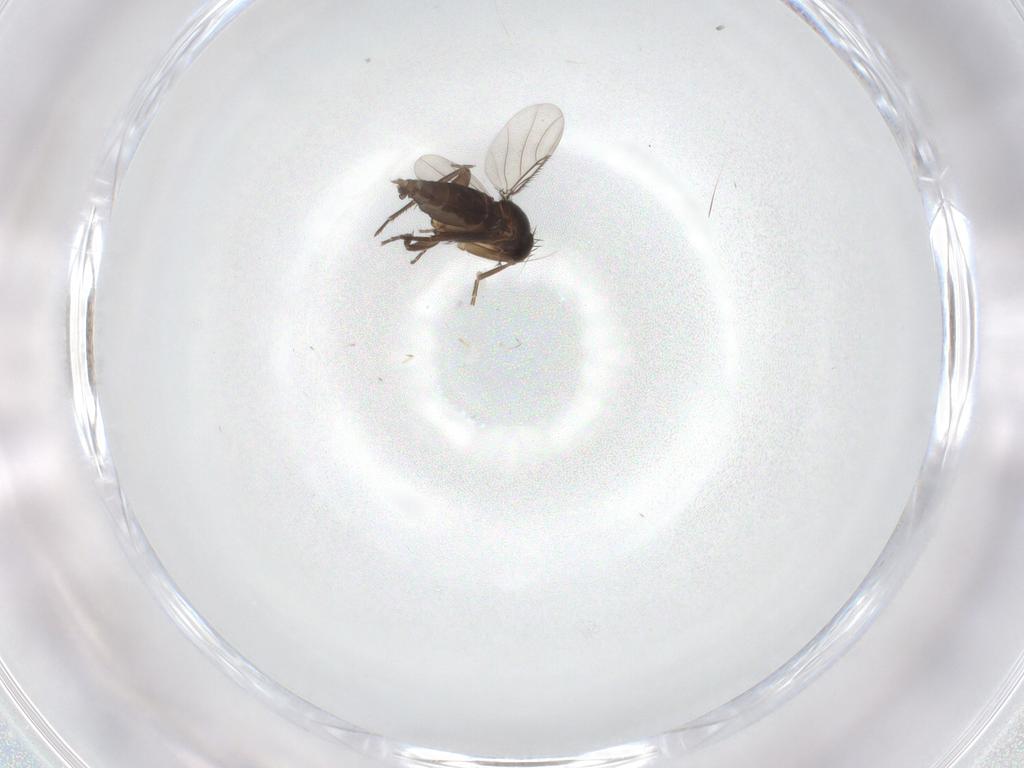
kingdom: Animalia
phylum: Arthropoda
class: Insecta
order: Diptera
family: Phoridae
